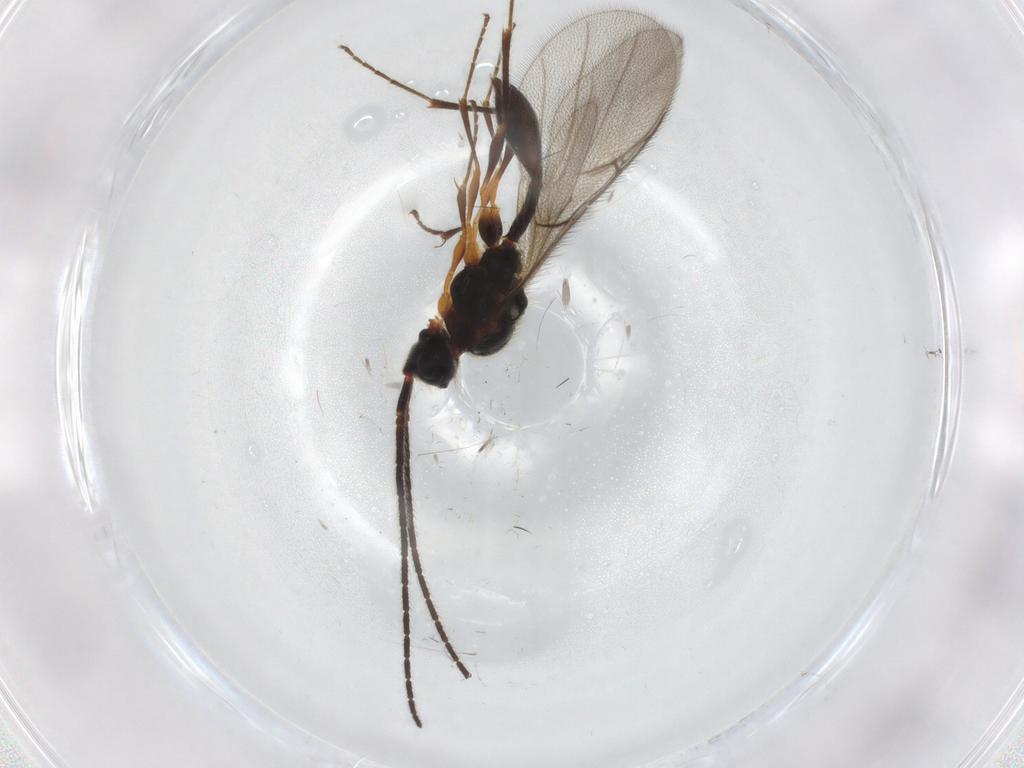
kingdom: Animalia
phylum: Arthropoda
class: Insecta
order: Hymenoptera
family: Diapriidae
